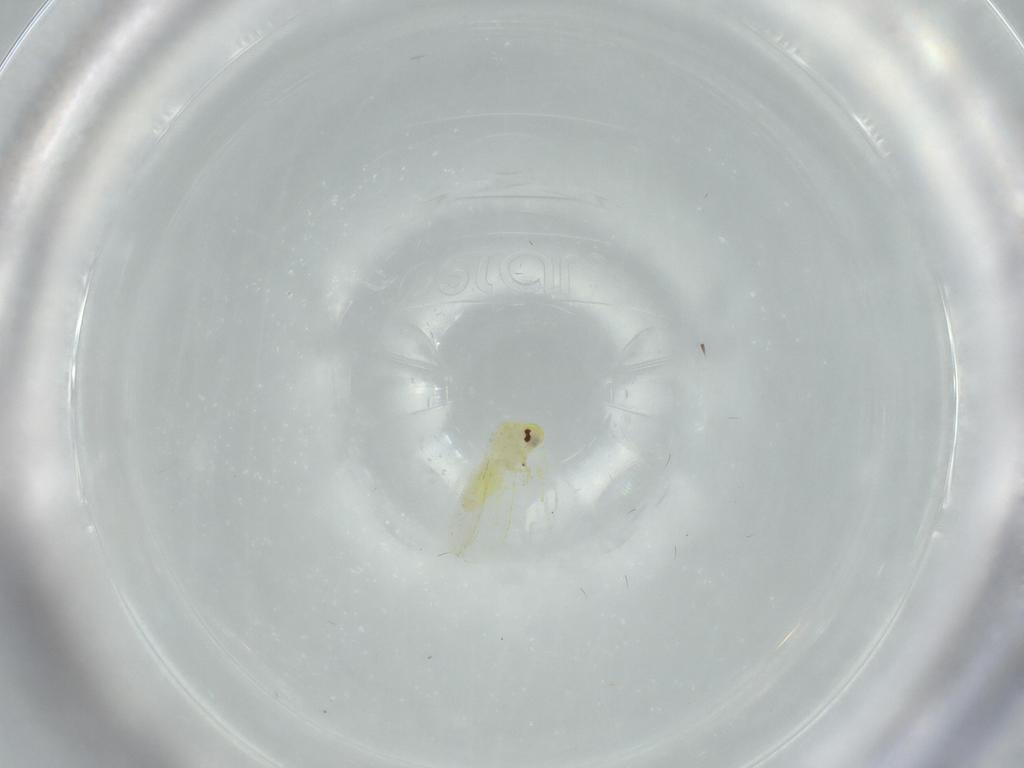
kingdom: Animalia
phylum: Arthropoda
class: Insecta
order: Hemiptera
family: Aleyrodidae
